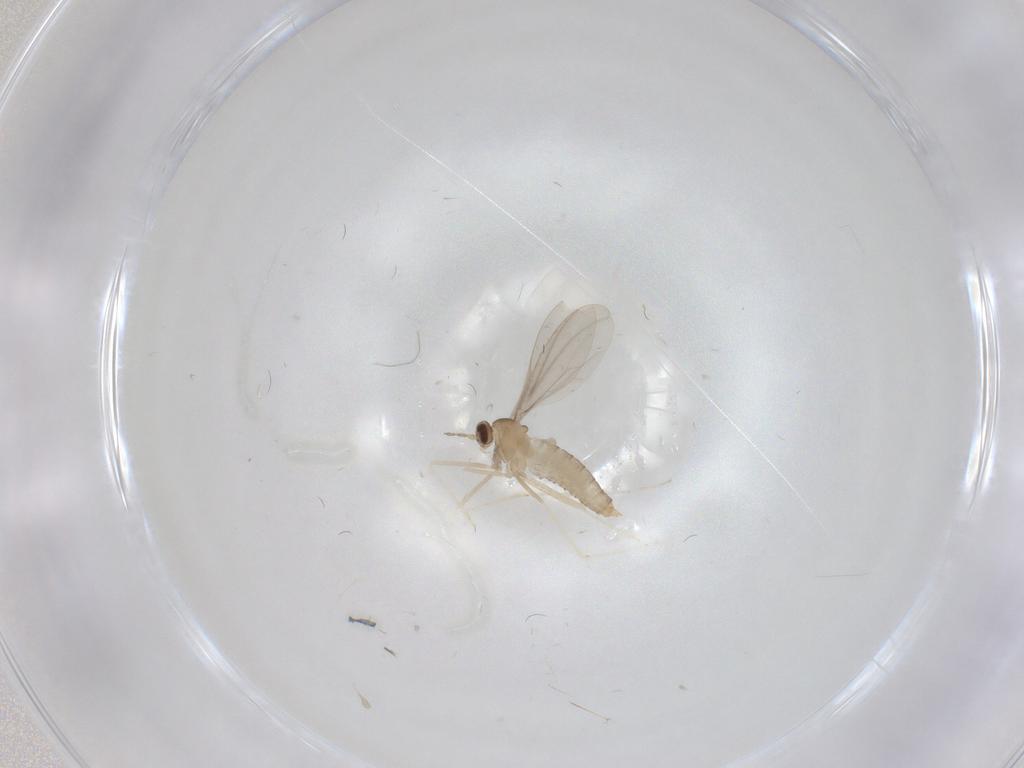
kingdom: Animalia
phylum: Arthropoda
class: Insecta
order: Diptera
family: Cecidomyiidae
